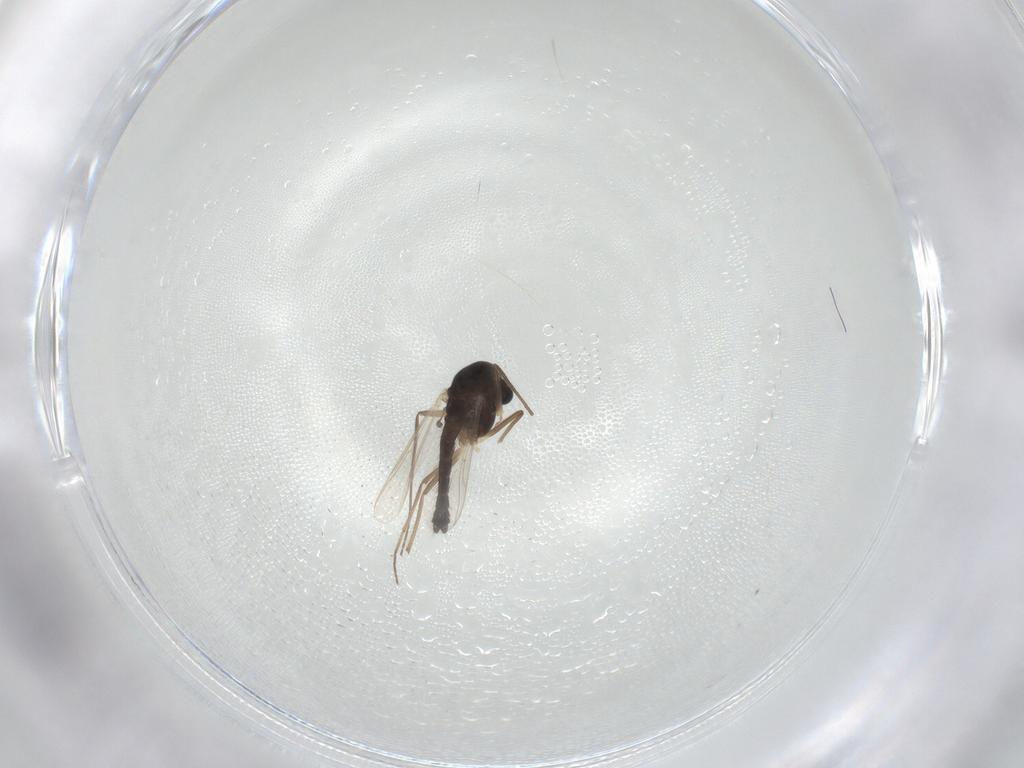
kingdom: Animalia
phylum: Arthropoda
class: Insecta
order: Diptera
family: Chironomidae
